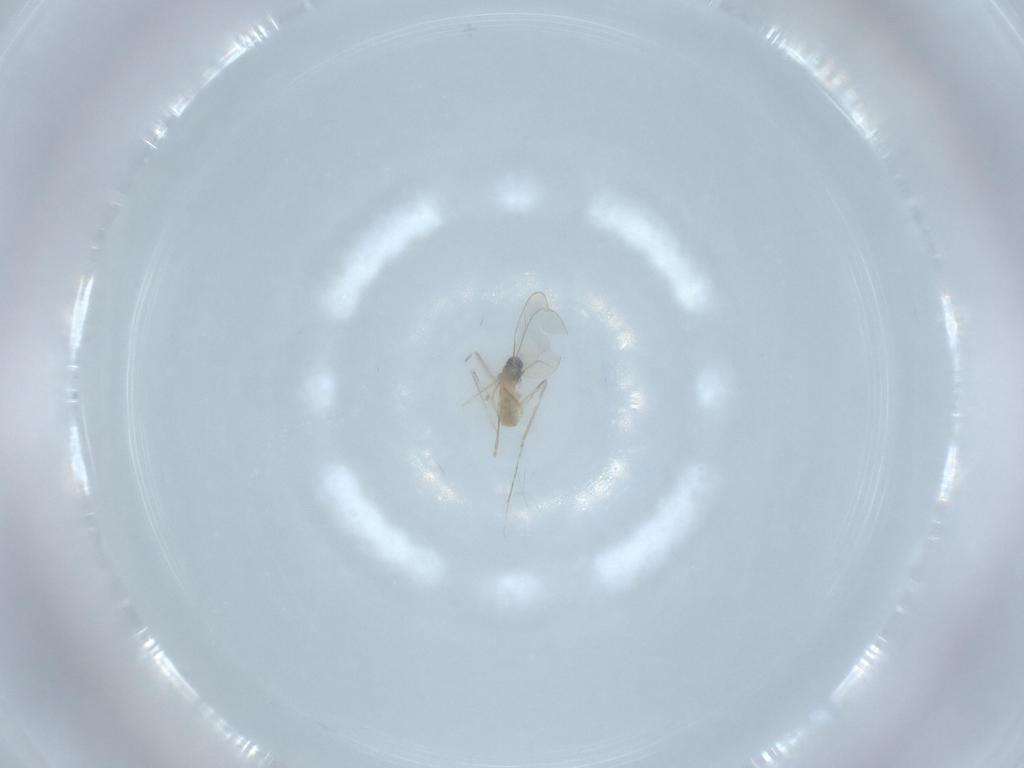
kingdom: Animalia
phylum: Arthropoda
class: Insecta
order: Diptera
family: Cecidomyiidae
